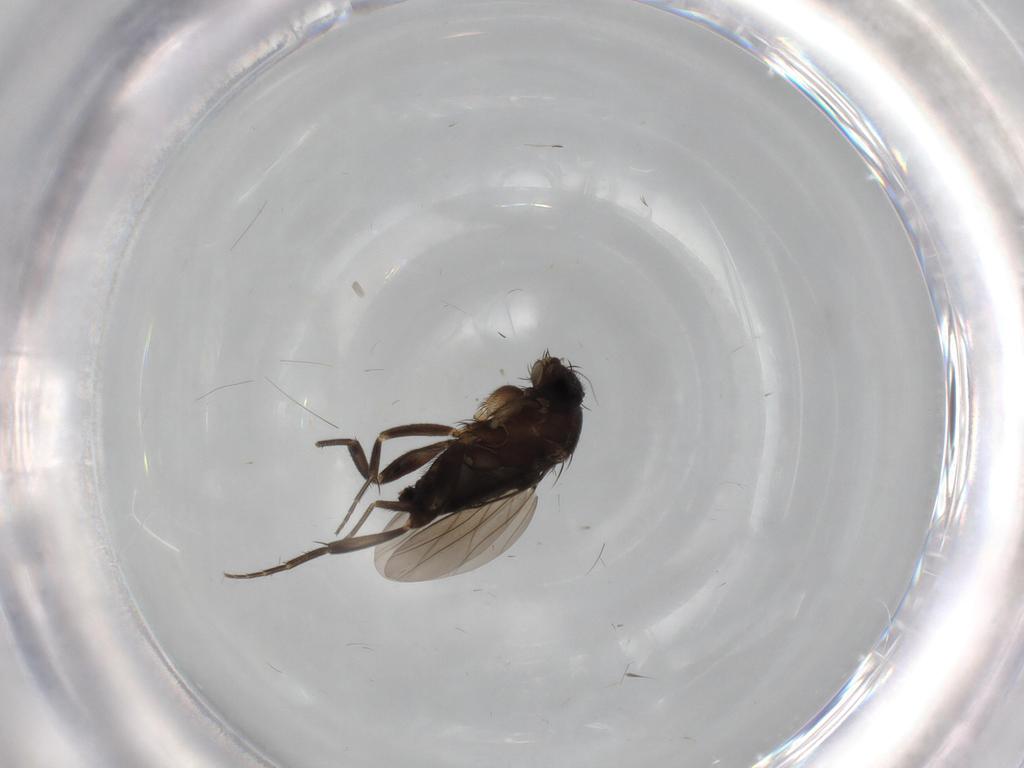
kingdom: Animalia
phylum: Arthropoda
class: Insecta
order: Diptera
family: Phoridae
